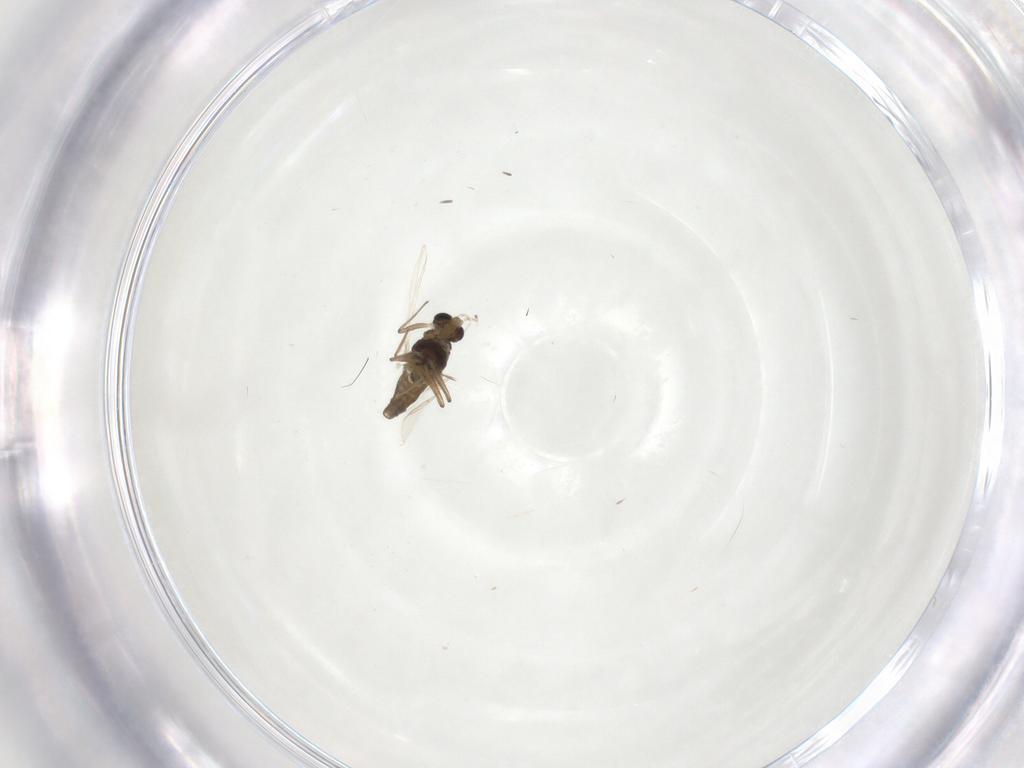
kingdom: Animalia
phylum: Arthropoda
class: Insecta
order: Diptera
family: Chironomidae
